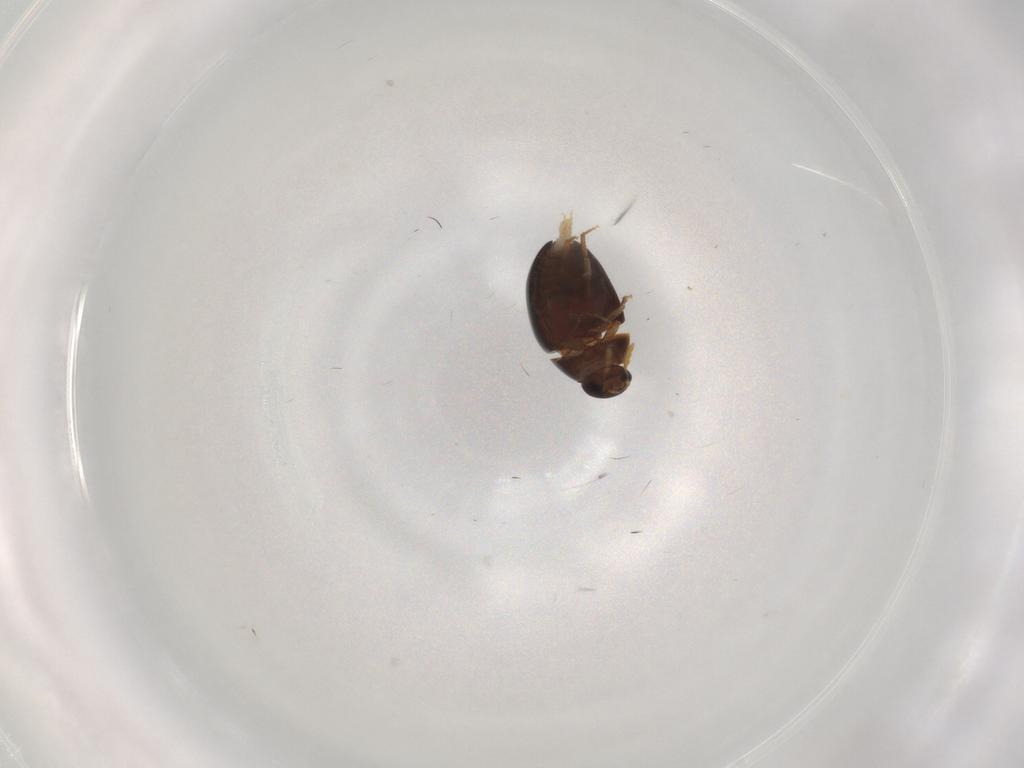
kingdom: Animalia
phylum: Arthropoda
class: Insecta
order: Coleoptera
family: Phalacridae
